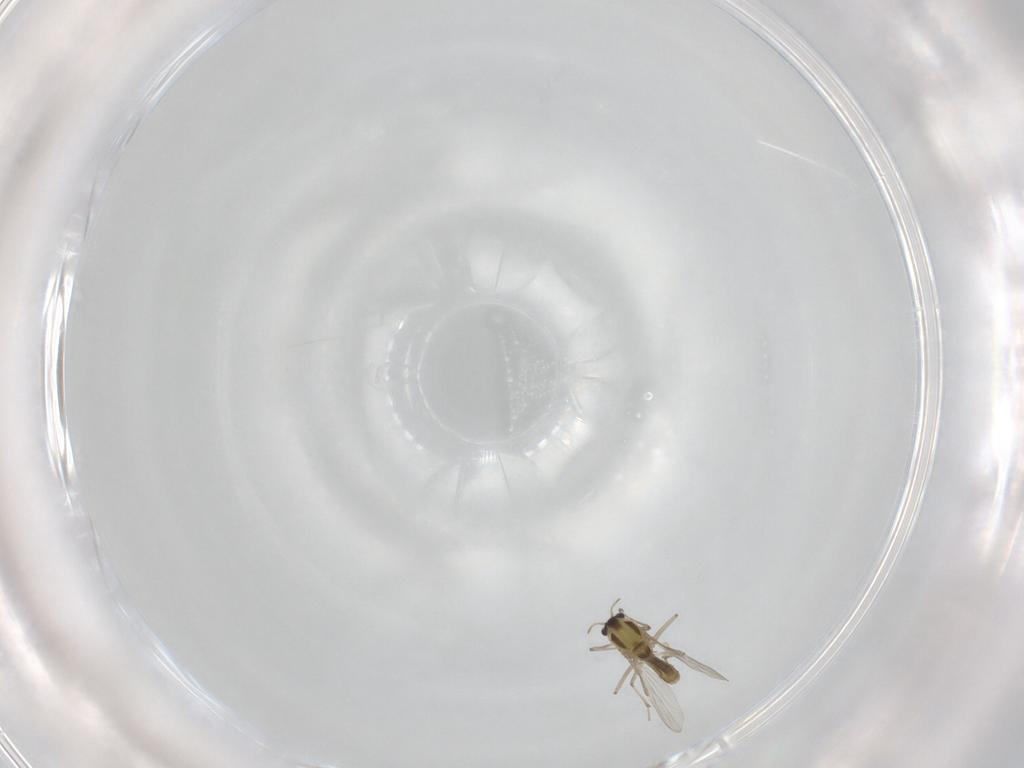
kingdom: Animalia
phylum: Arthropoda
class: Insecta
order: Diptera
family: Chironomidae
